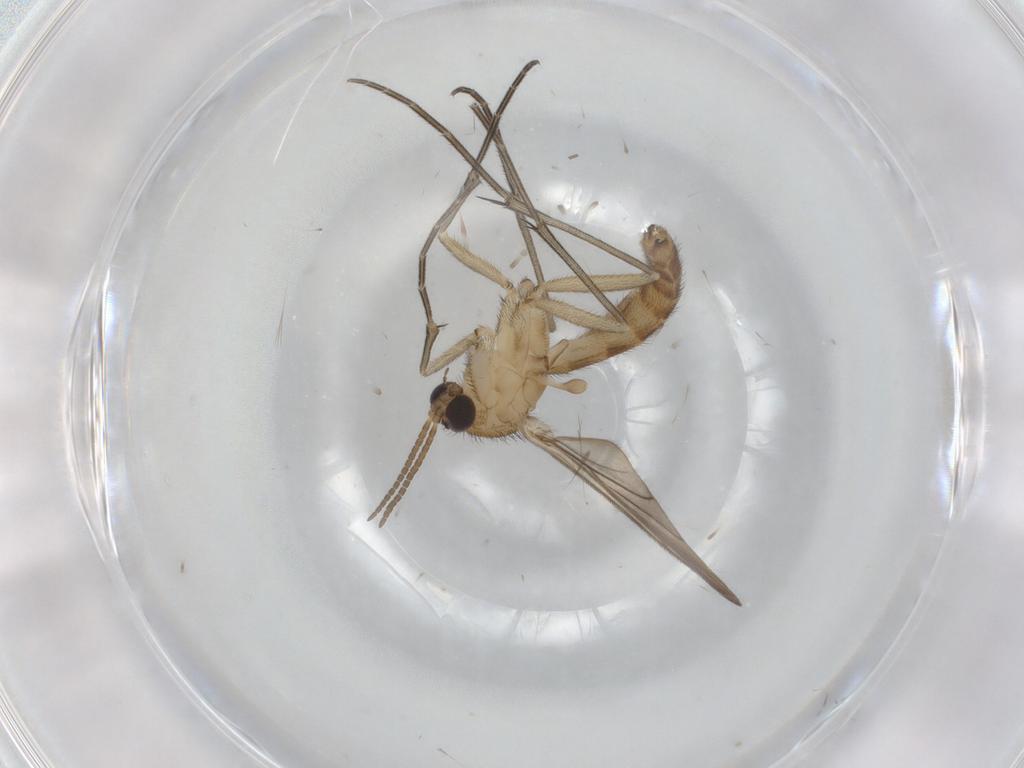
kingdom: Animalia
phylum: Arthropoda
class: Insecta
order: Diptera
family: Keroplatidae
